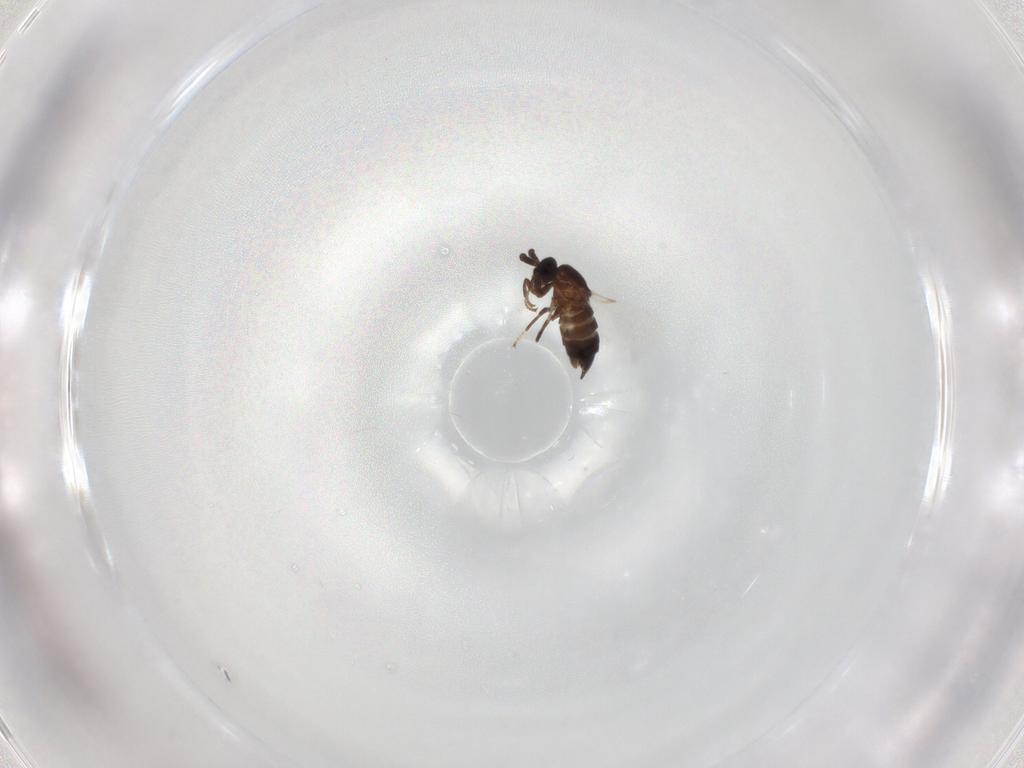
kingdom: Animalia
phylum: Arthropoda
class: Insecta
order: Diptera
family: Scatopsidae
